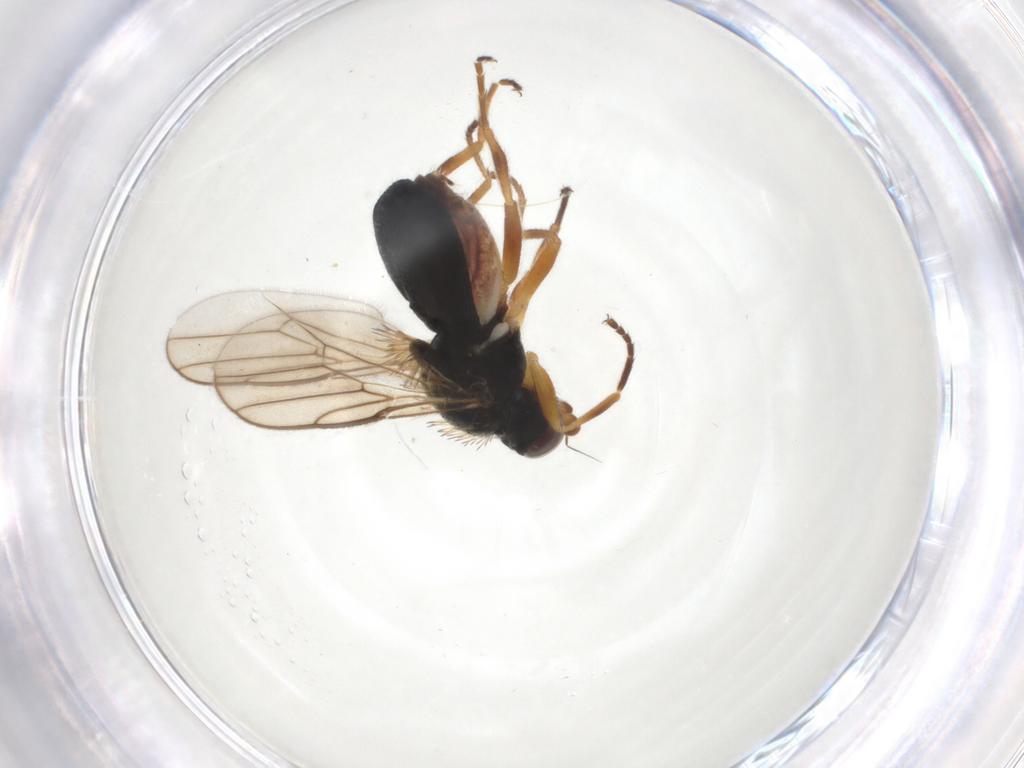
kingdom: Animalia
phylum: Arthropoda
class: Insecta
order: Diptera
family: Chloropidae
